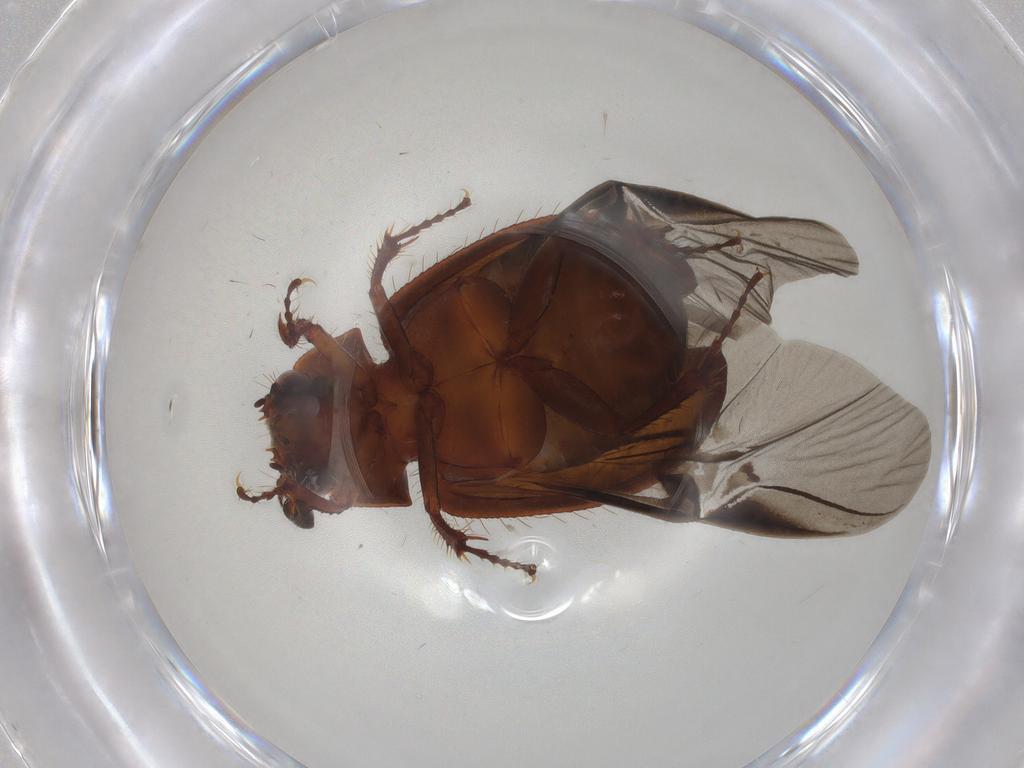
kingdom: Animalia
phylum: Arthropoda
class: Insecta
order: Coleoptera
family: Hybosoridae
